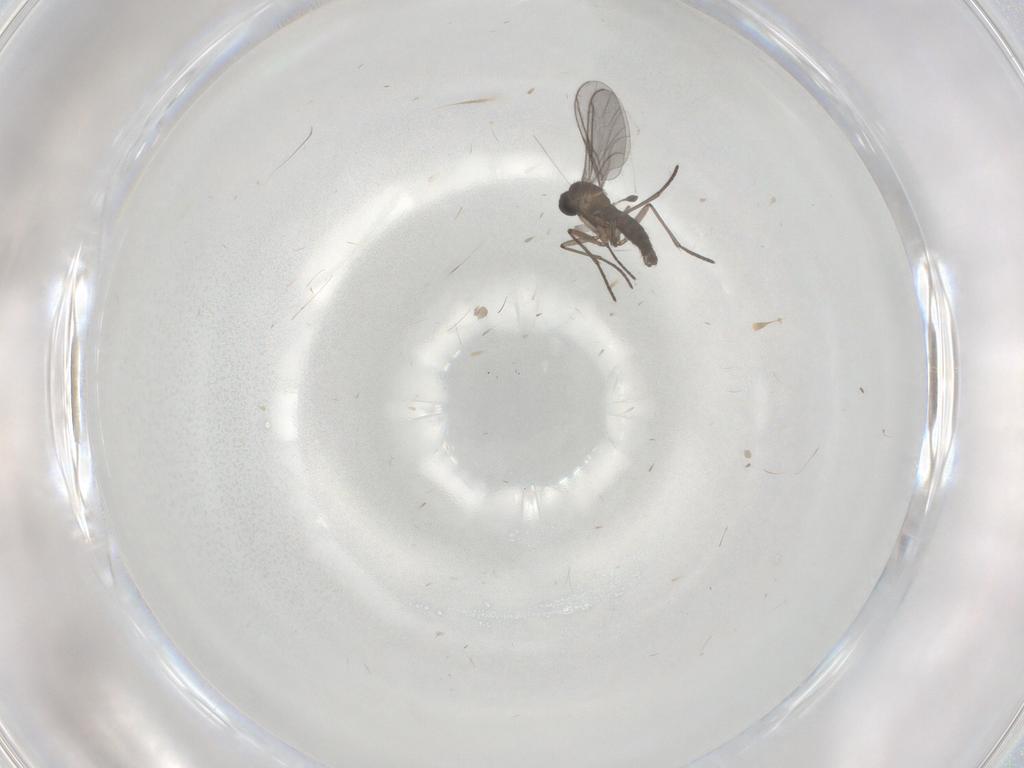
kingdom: Animalia
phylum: Arthropoda
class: Insecta
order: Diptera
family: Cecidomyiidae
